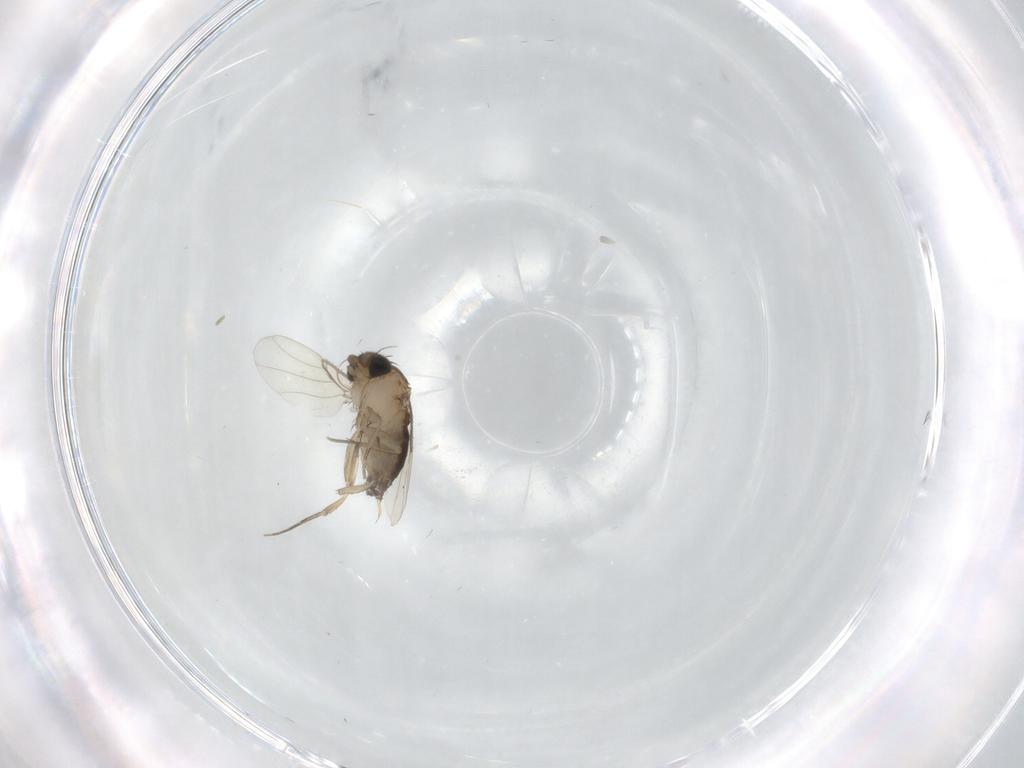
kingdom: Animalia
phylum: Arthropoda
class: Insecta
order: Diptera
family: Phoridae
